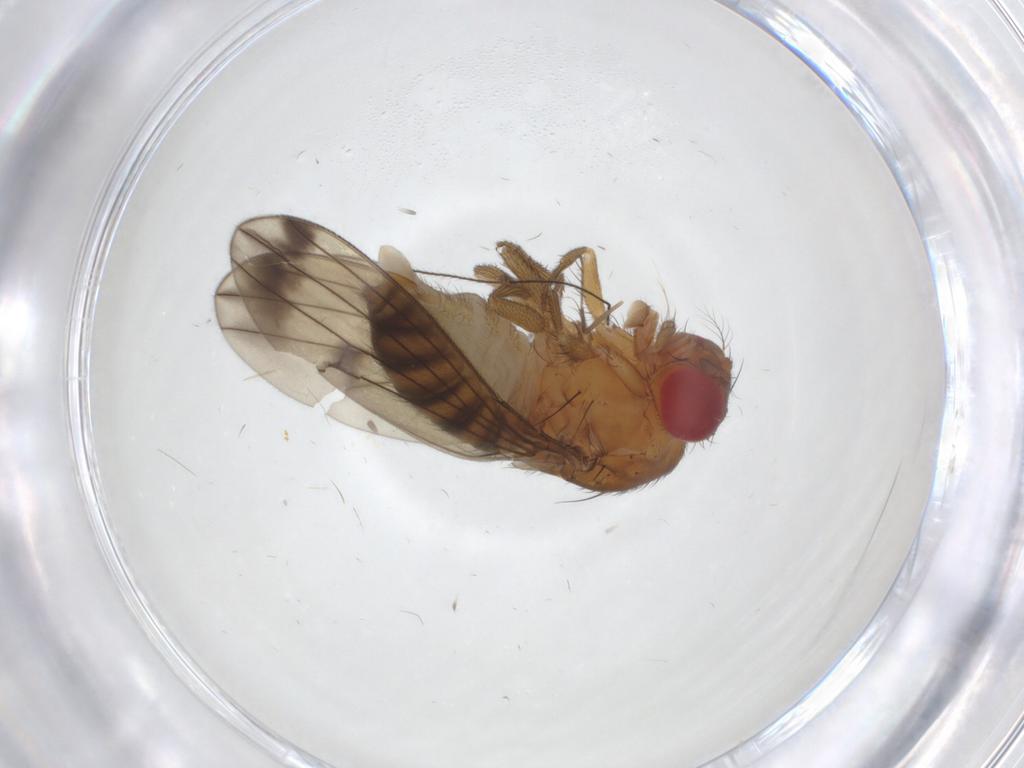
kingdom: Animalia
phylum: Arthropoda
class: Insecta
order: Diptera
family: Drosophilidae
